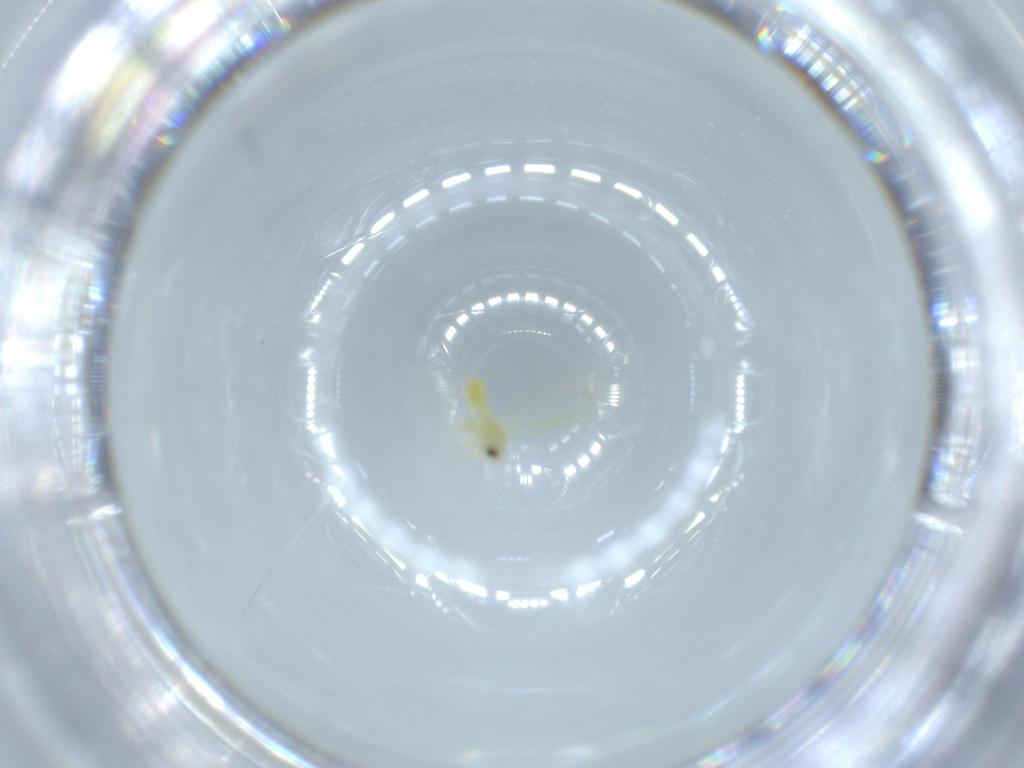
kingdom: Animalia
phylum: Arthropoda
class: Insecta
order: Hemiptera
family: Aleyrodidae
